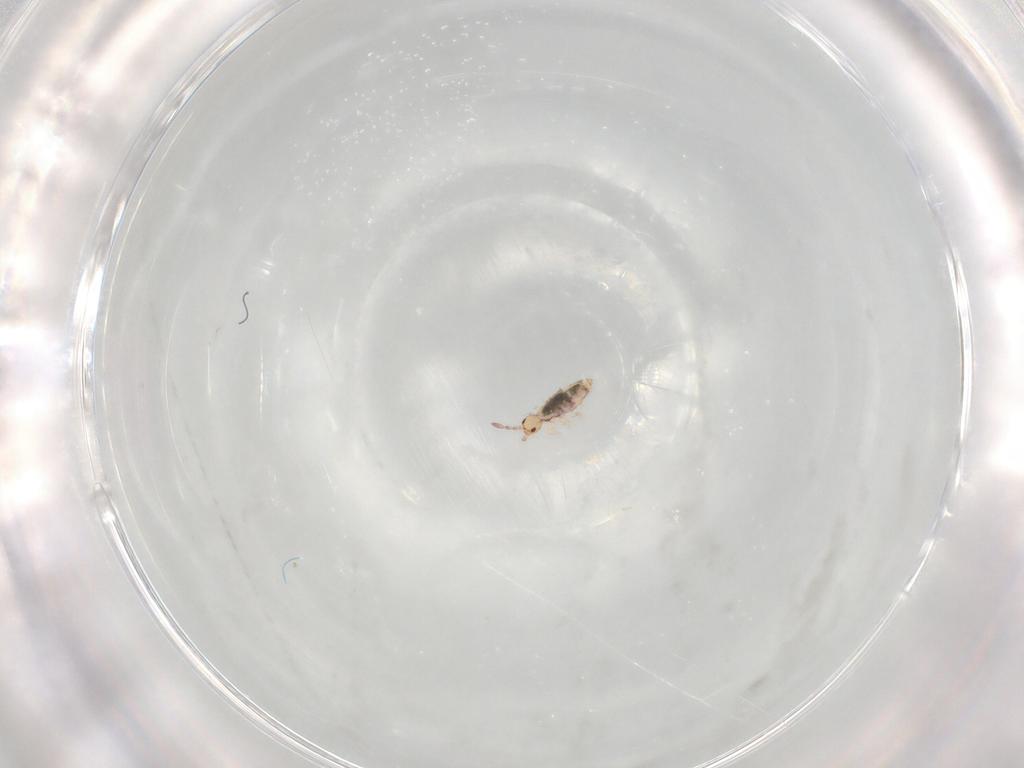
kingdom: Animalia
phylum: Arthropoda
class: Collembola
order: Entomobryomorpha
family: Entomobryidae
